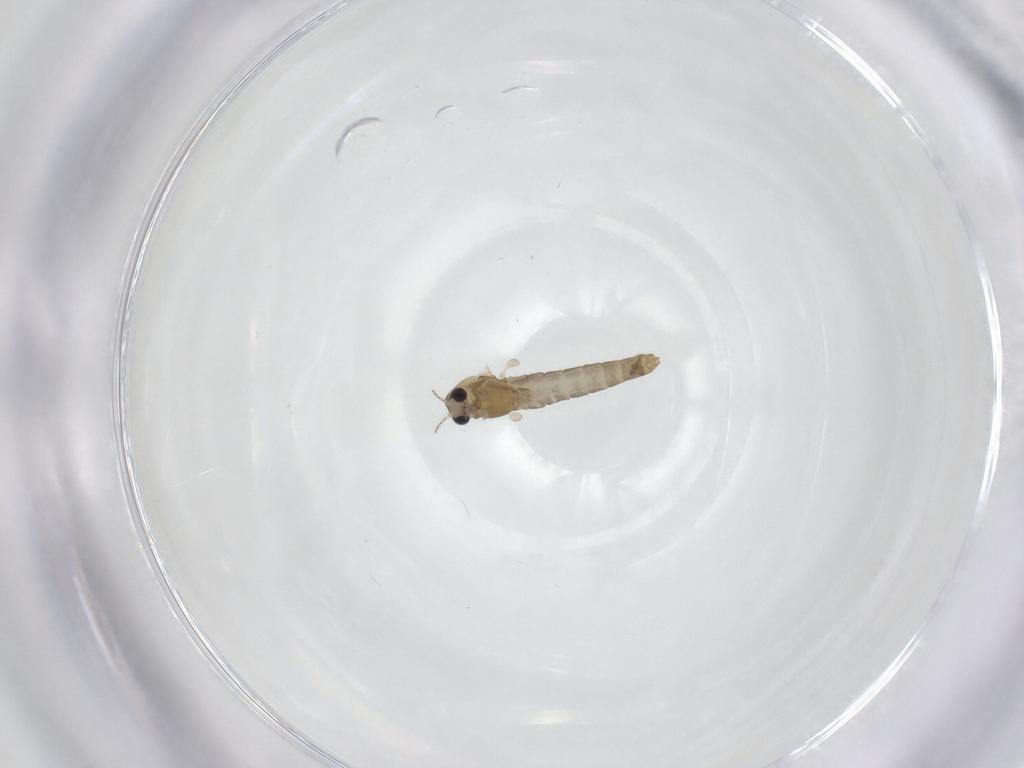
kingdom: Animalia
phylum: Arthropoda
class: Insecta
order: Diptera
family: Chironomidae
